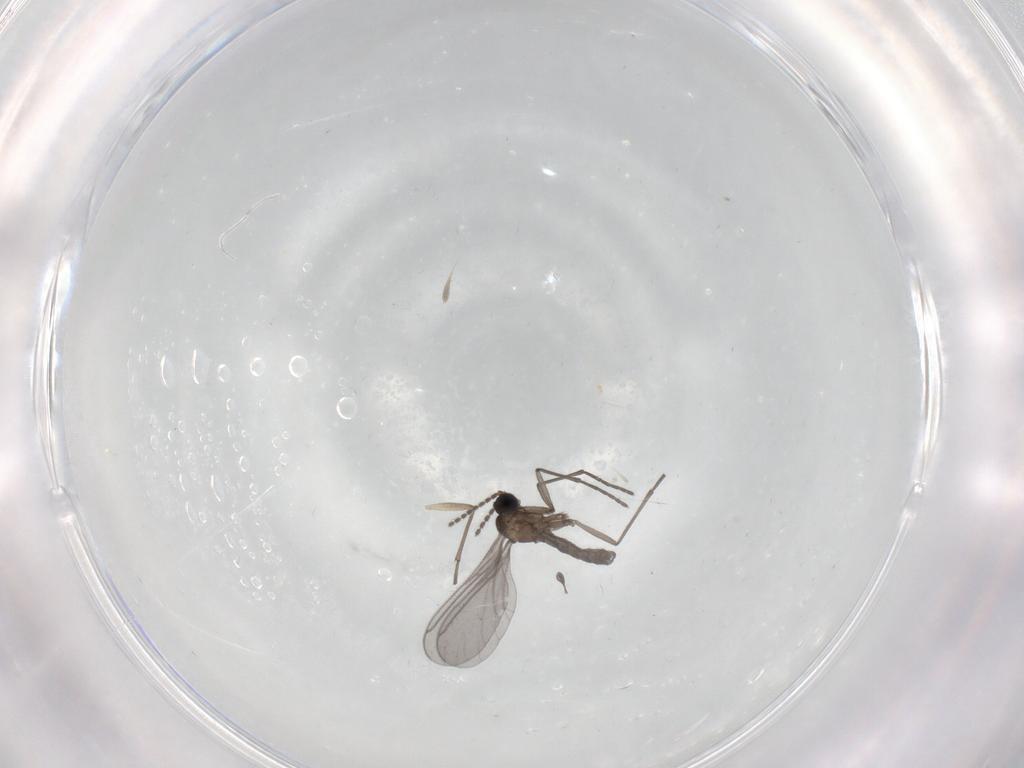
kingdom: Animalia
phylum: Arthropoda
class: Insecta
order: Diptera
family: Sciaridae
